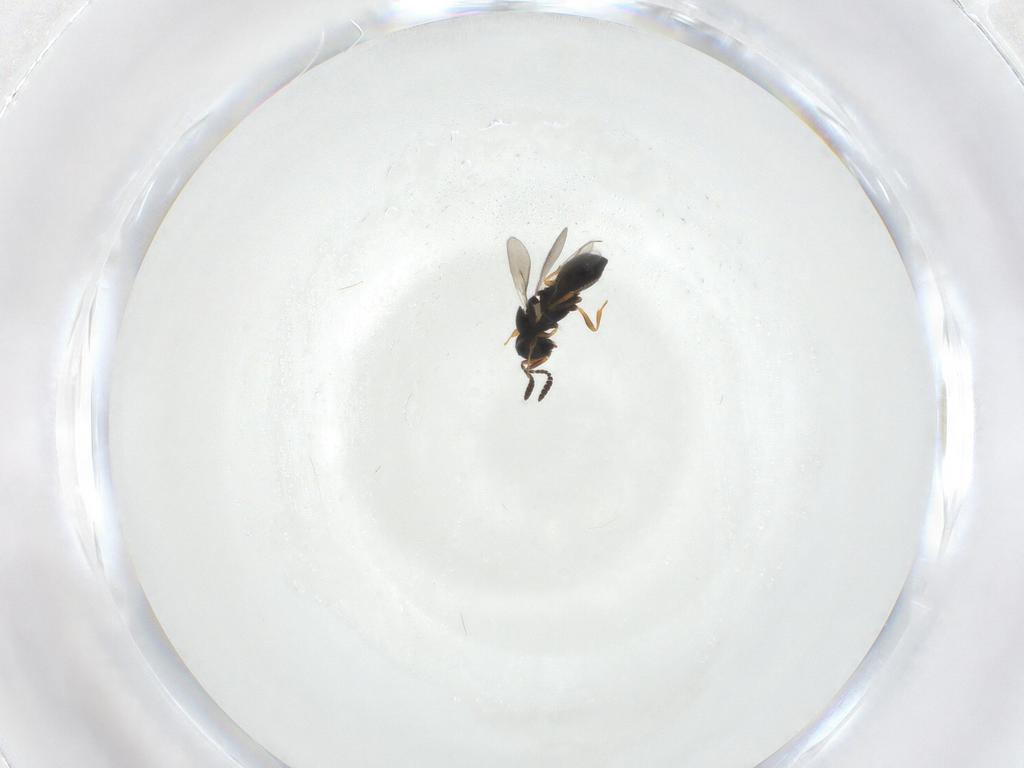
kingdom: Animalia
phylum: Arthropoda
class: Insecta
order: Hymenoptera
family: Scelionidae
